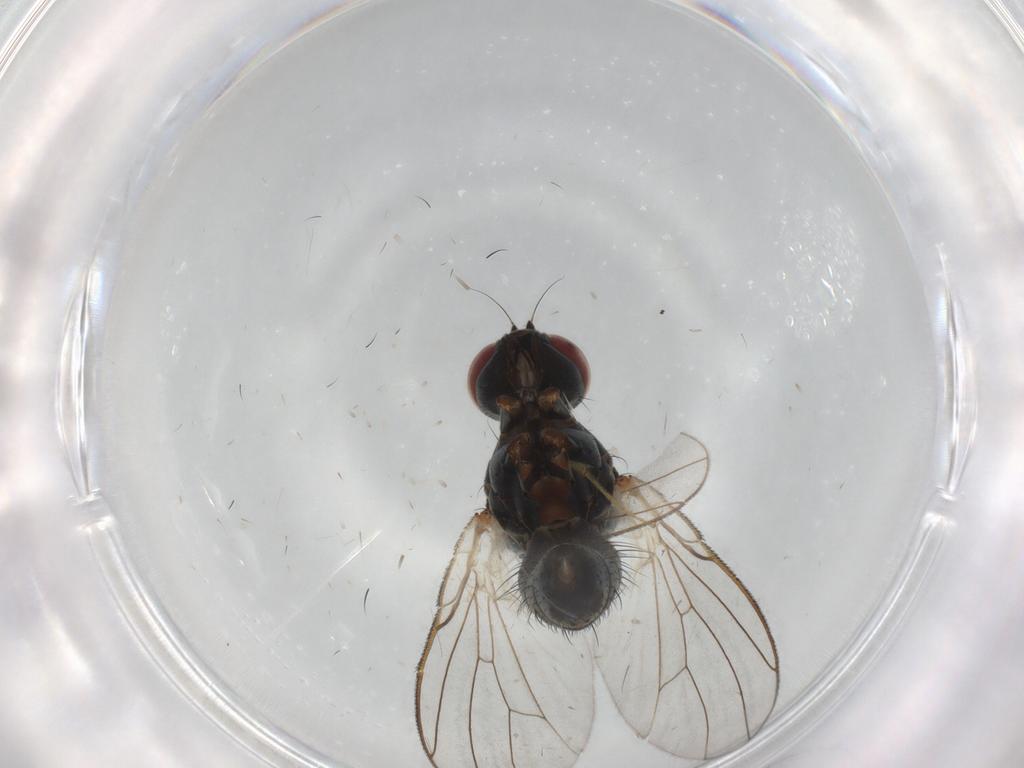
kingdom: Animalia
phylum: Arthropoda
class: Insecta
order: Diptera
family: Muscidae
